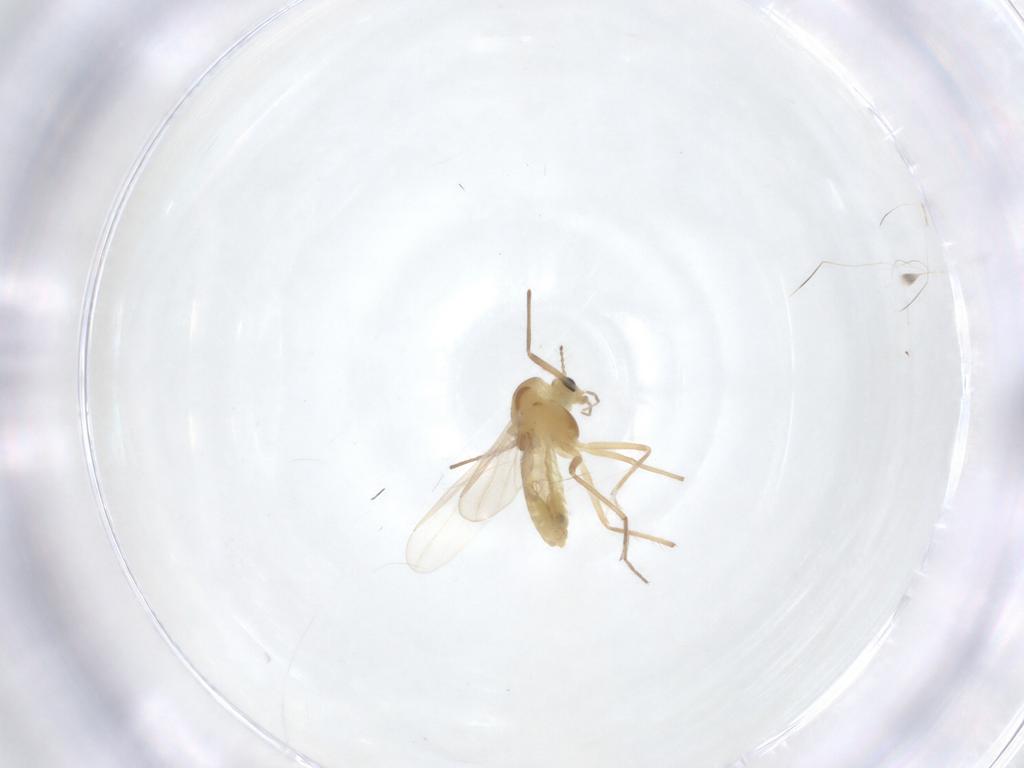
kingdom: Animalia
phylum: Arthropoda
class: Insecta
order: Diptera
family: Chironomidae
